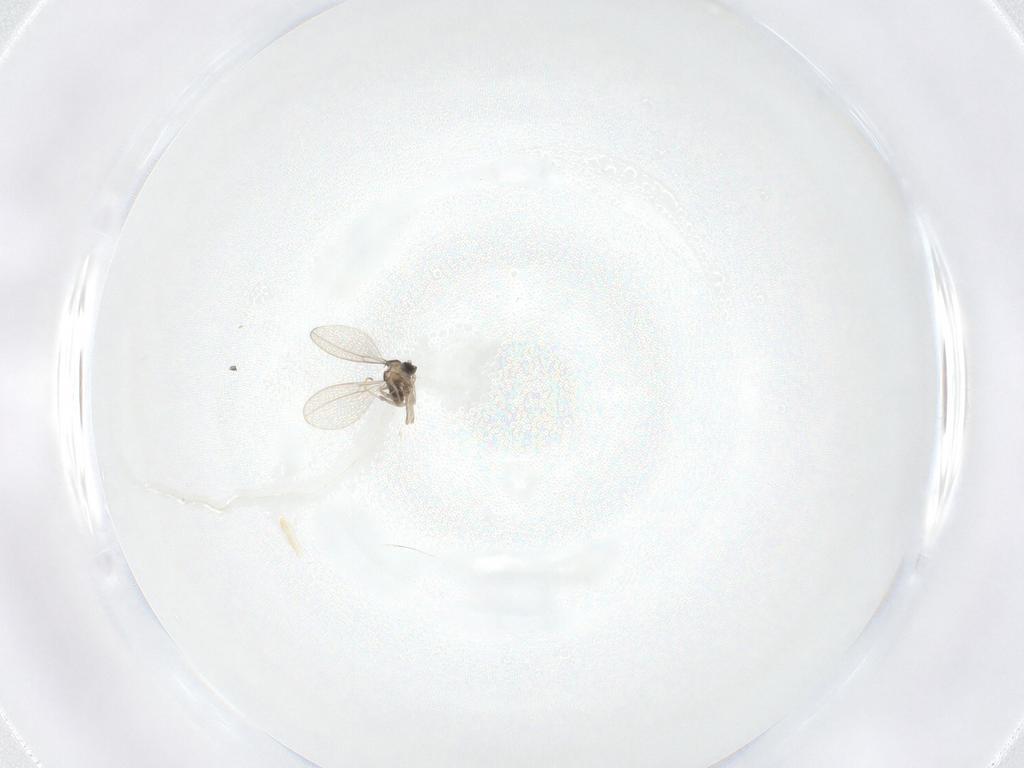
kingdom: Animalia
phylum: Arthropoda
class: Insecta
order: Diptera
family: Cecidomyiidae
